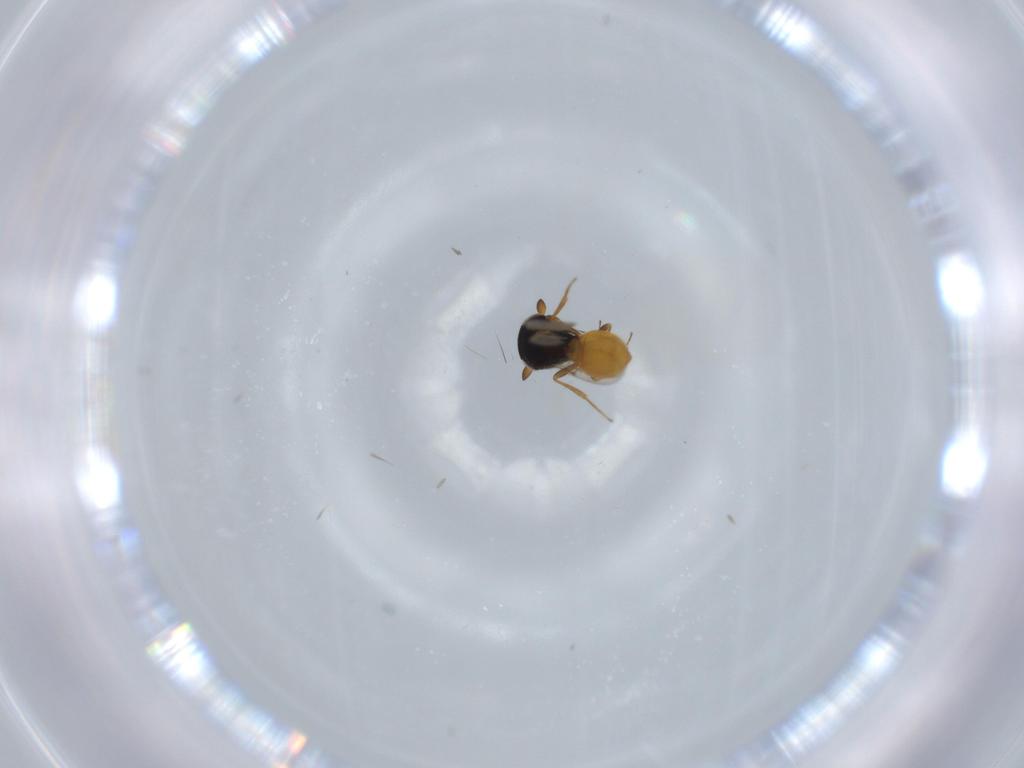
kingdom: Animalia
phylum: Arthropoda
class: Insecta
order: Hymenoptera
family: Scelionidae
